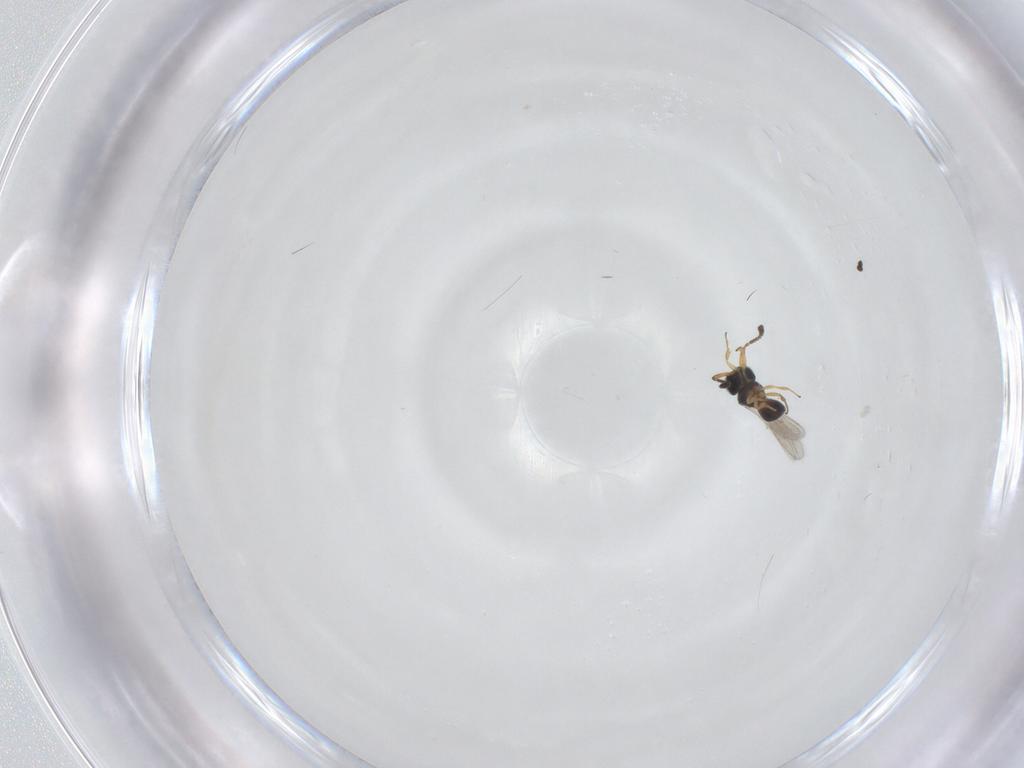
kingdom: Animalia
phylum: Arthropoda
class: Insecta
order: Hymenoptera
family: Scelionidae
